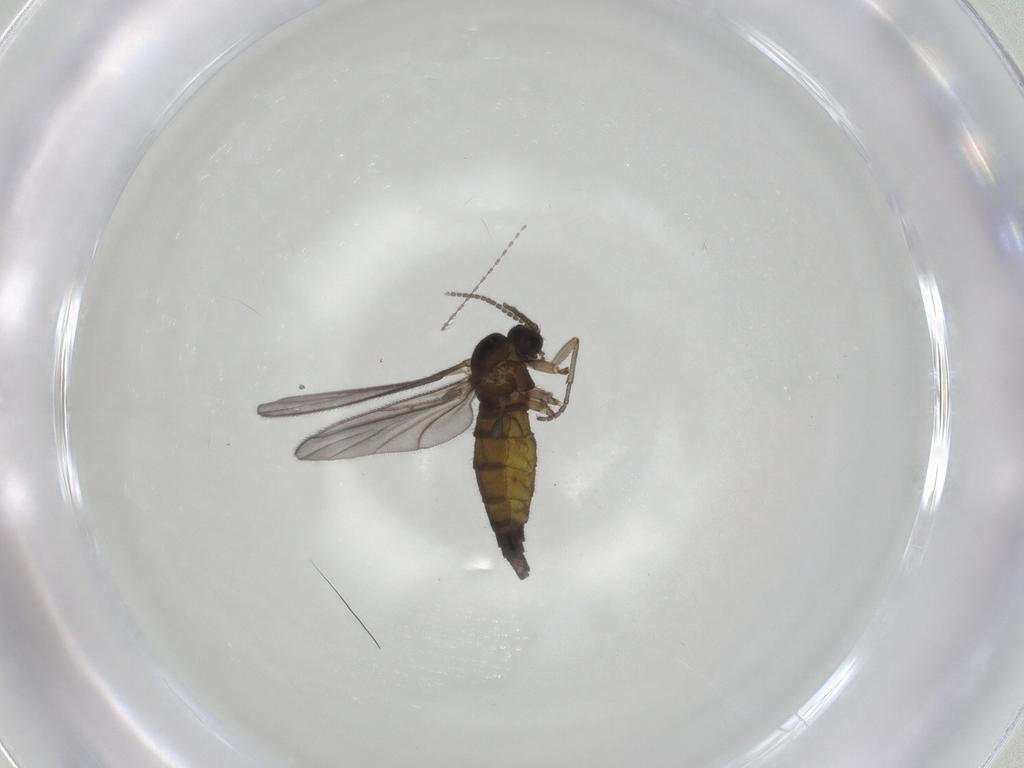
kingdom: Animalia
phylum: Arthropoda
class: Insecta
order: Diptera
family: Sciaridae
